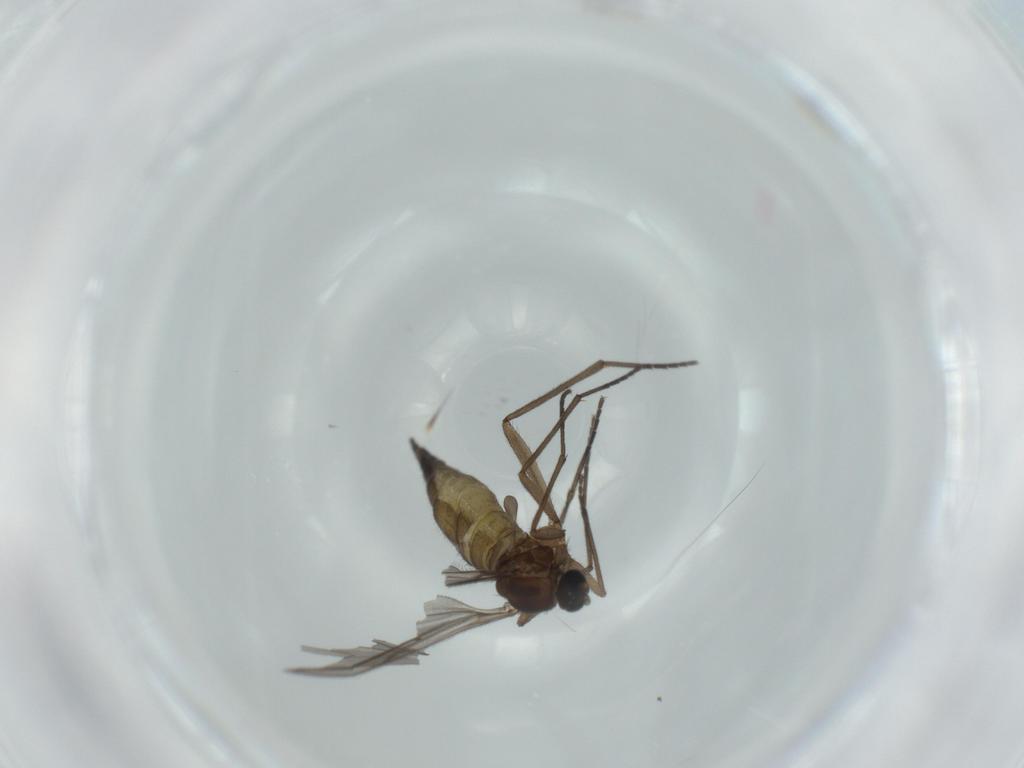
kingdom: Animalia
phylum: Arthropoda
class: Insecta
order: Diptera
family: Sciaridae
